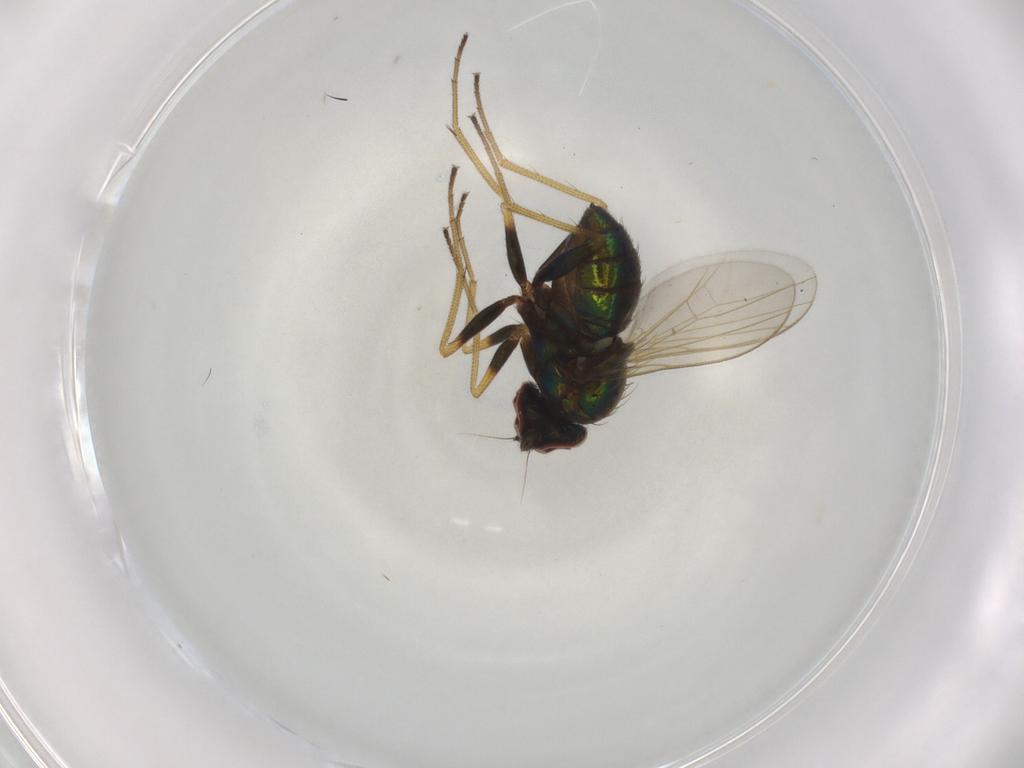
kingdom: Animalia
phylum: Arthropoda
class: Insecta
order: Diptera
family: Dolichopodidae
